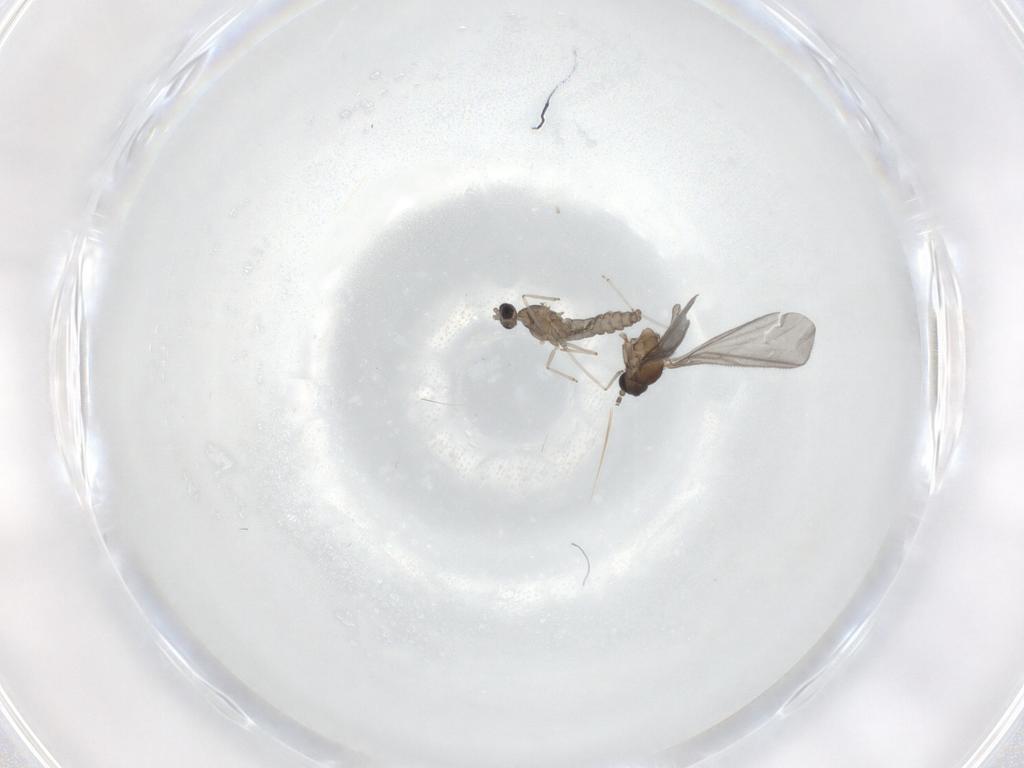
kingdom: Animalia
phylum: Arthropoda
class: Insecta
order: Diptera
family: Cecidomyiidae
